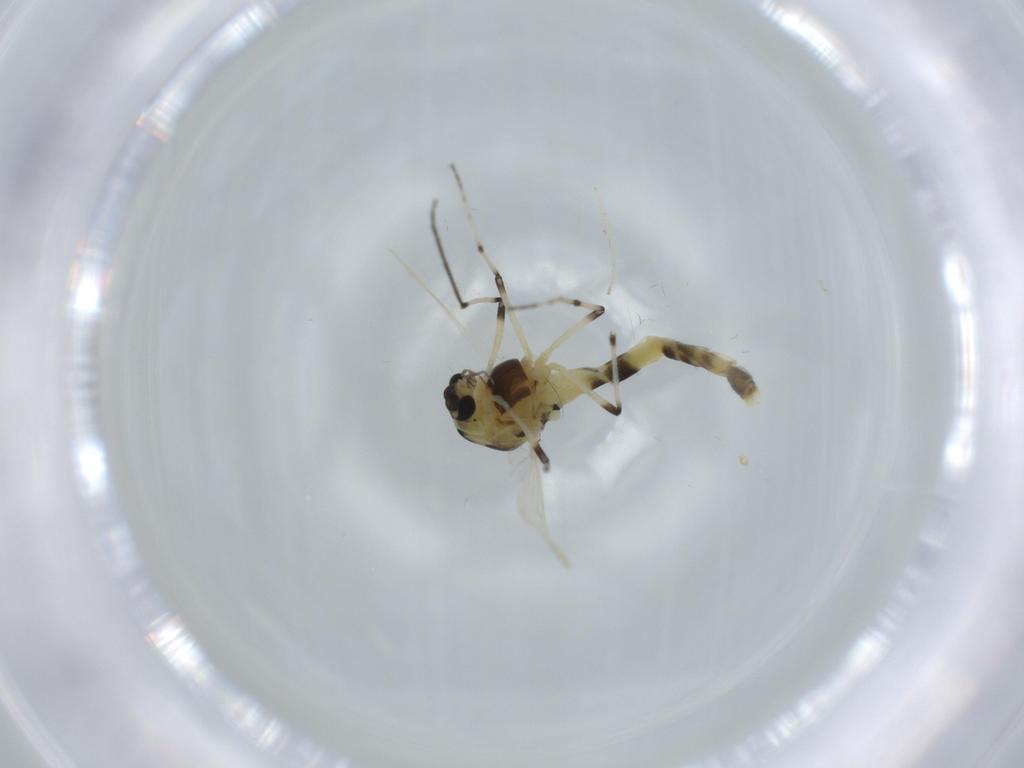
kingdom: Animalia
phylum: Arthropoda
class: Insecta
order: Diptera
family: Chironomidae
